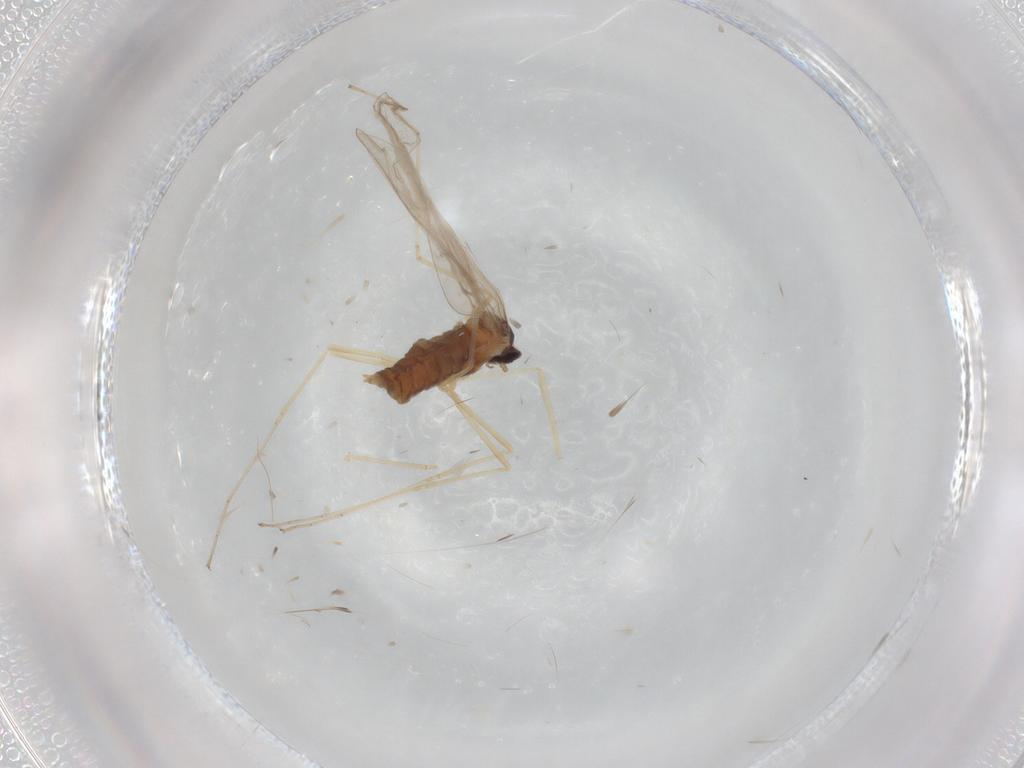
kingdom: Animalia
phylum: Arthropoda
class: Insecta
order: Diptera
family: Cecidomyiidae
